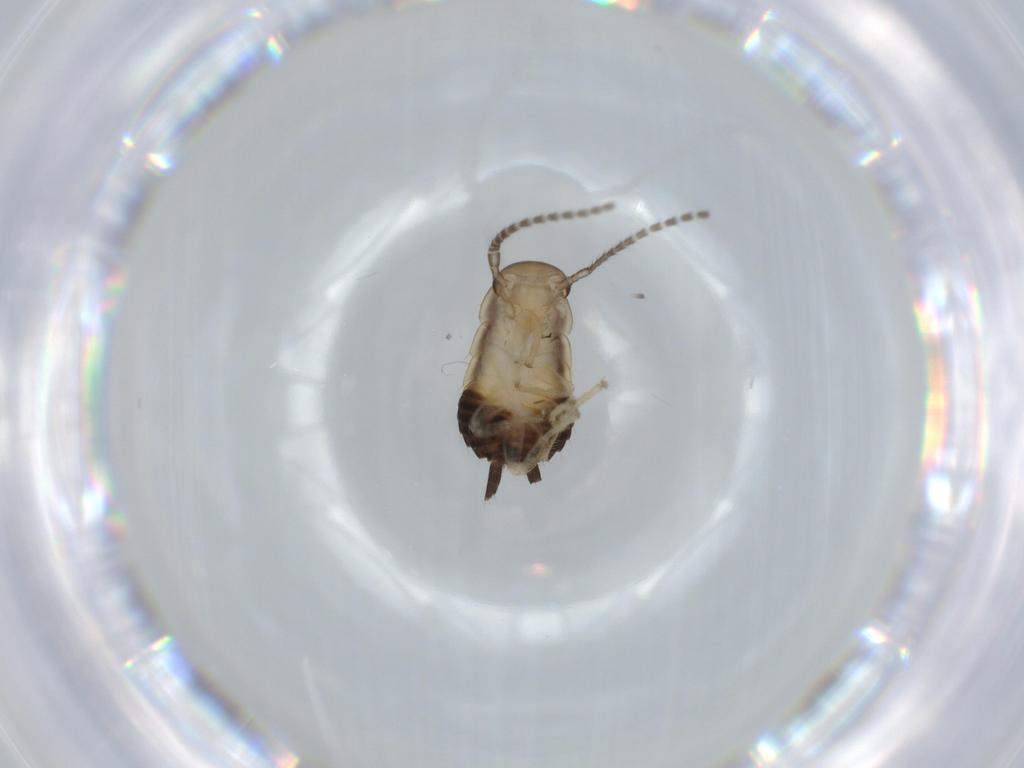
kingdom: Animalia
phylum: Arthropoda
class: Insecta
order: Blattodea
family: Ectobiidae
